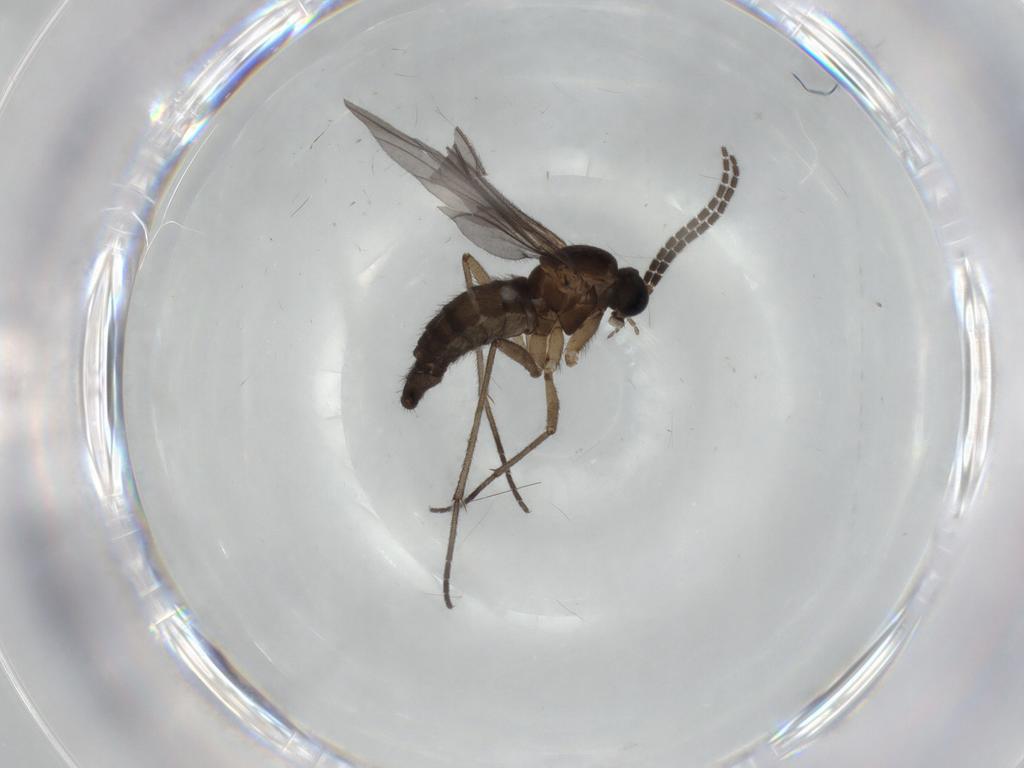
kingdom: Animalia
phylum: Arthropoda
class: Insecta
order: Diptera
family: Sciaridae
